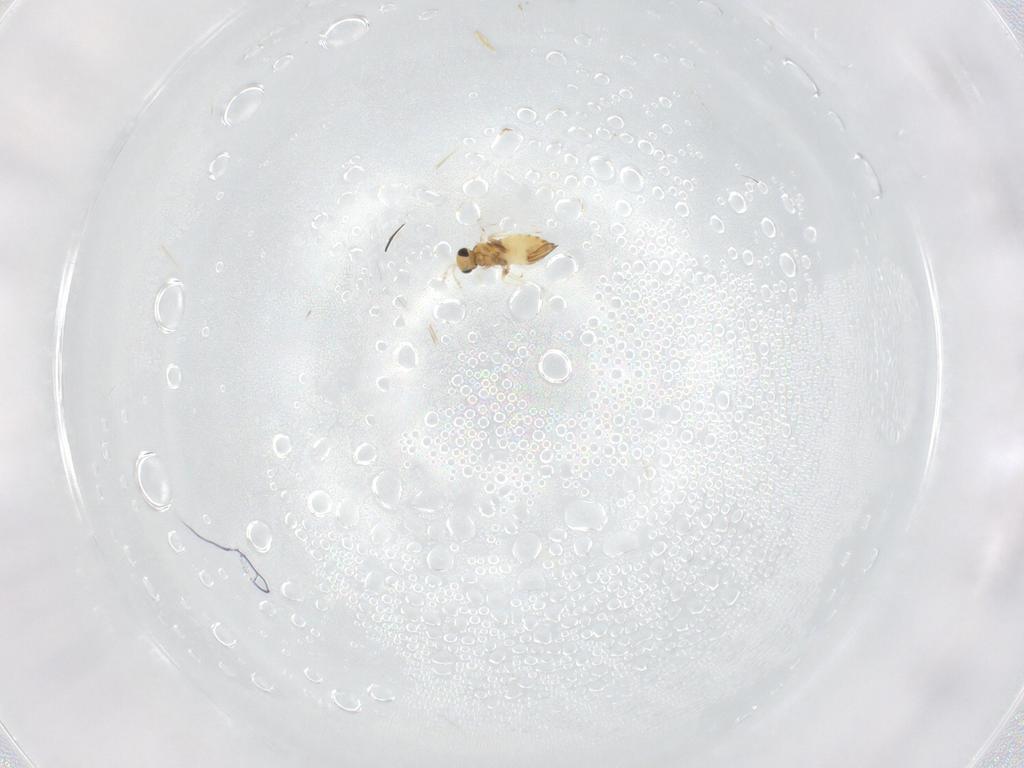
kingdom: Animalia
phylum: Arthropoda
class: Insecta
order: Hymenoptera
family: Trichogrammatidae
